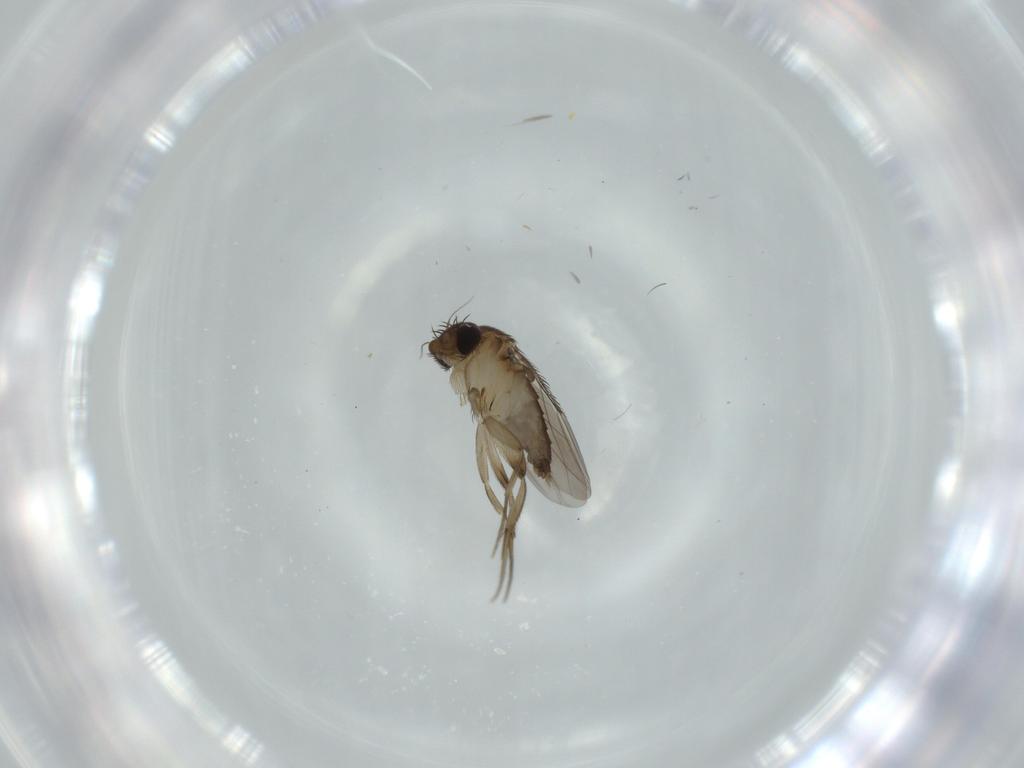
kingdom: Animalia
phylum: Arthropoda
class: Insecta
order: Diptera
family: Phoridae
